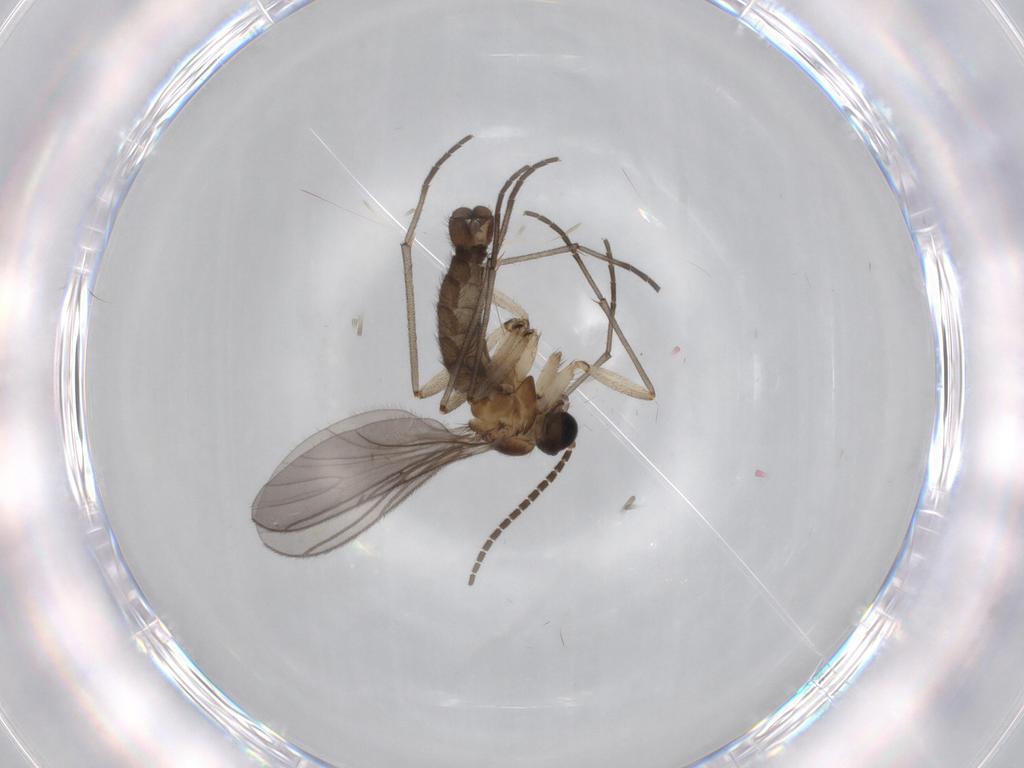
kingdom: Animalia
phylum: Arthropoda
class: Insecta
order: Diptera
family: Sciaridae
